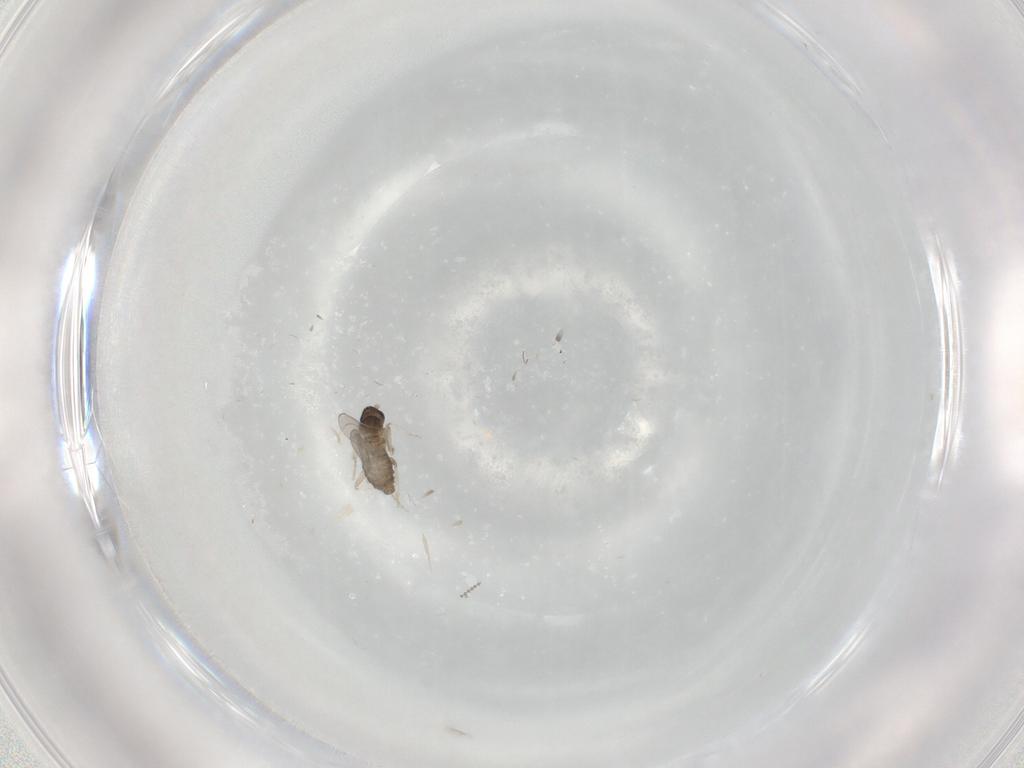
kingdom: Animalia
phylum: Arthropoda
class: Insecta
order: Diptera
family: Cecidomyiidae
